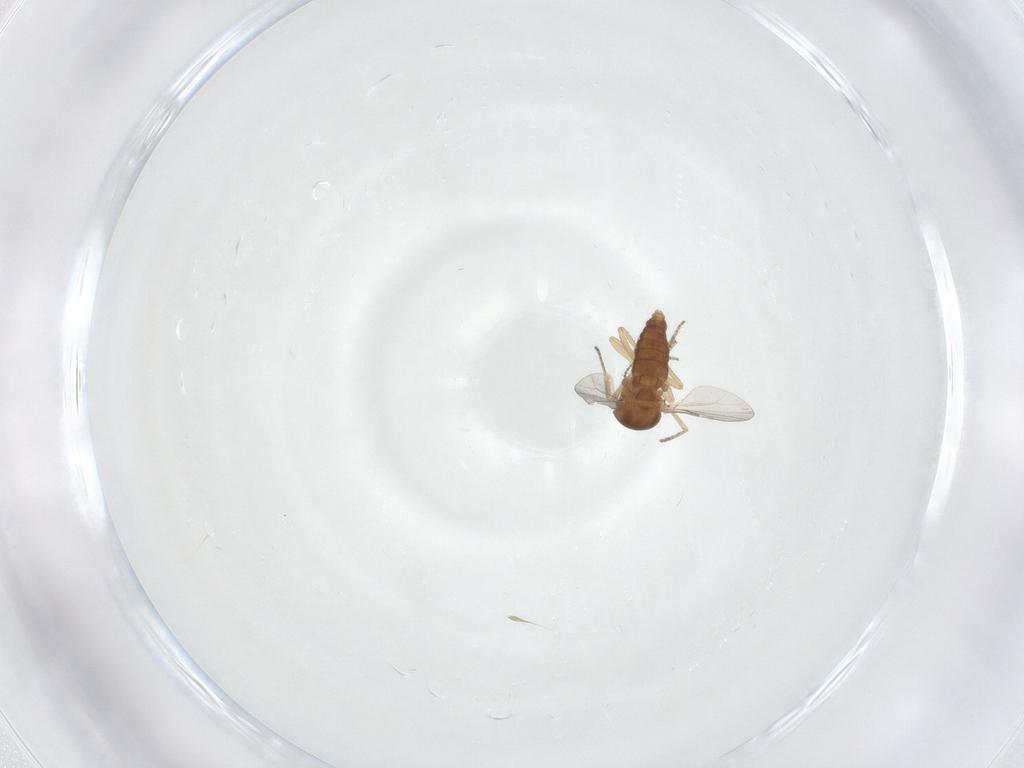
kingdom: Animalia
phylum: Arthropoda
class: Insecta
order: Diptera
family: Ceratopogonidae
